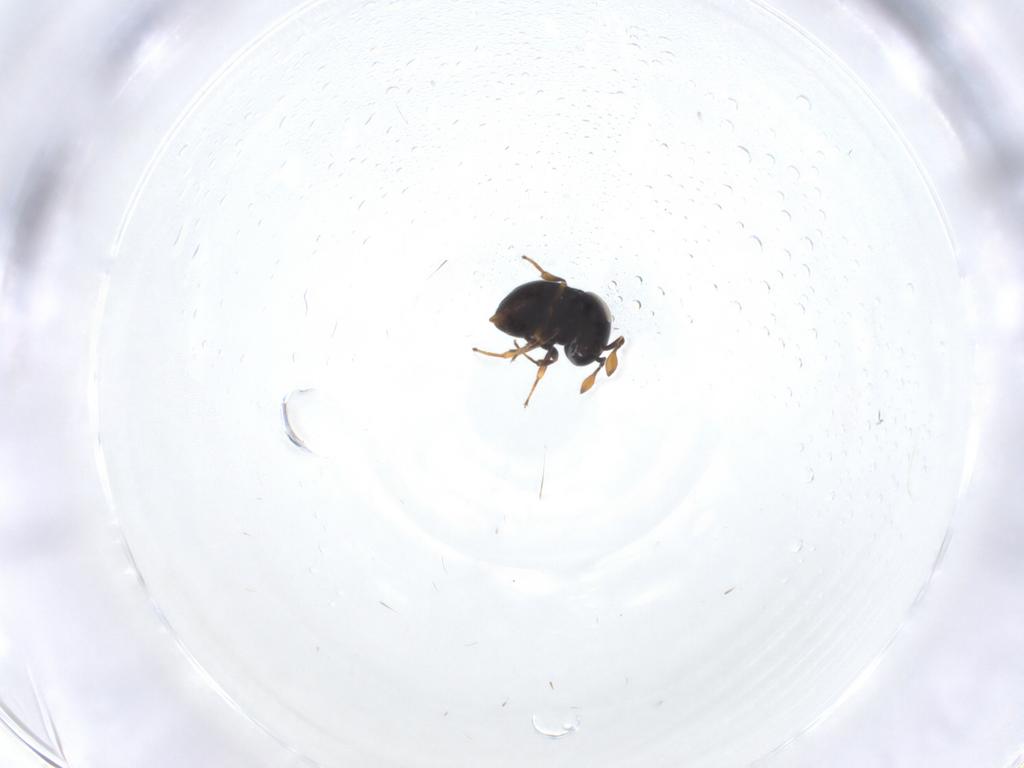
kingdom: Animalia
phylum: Arthropoda
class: Insecta
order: Hymenoptera
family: Scelionidae
